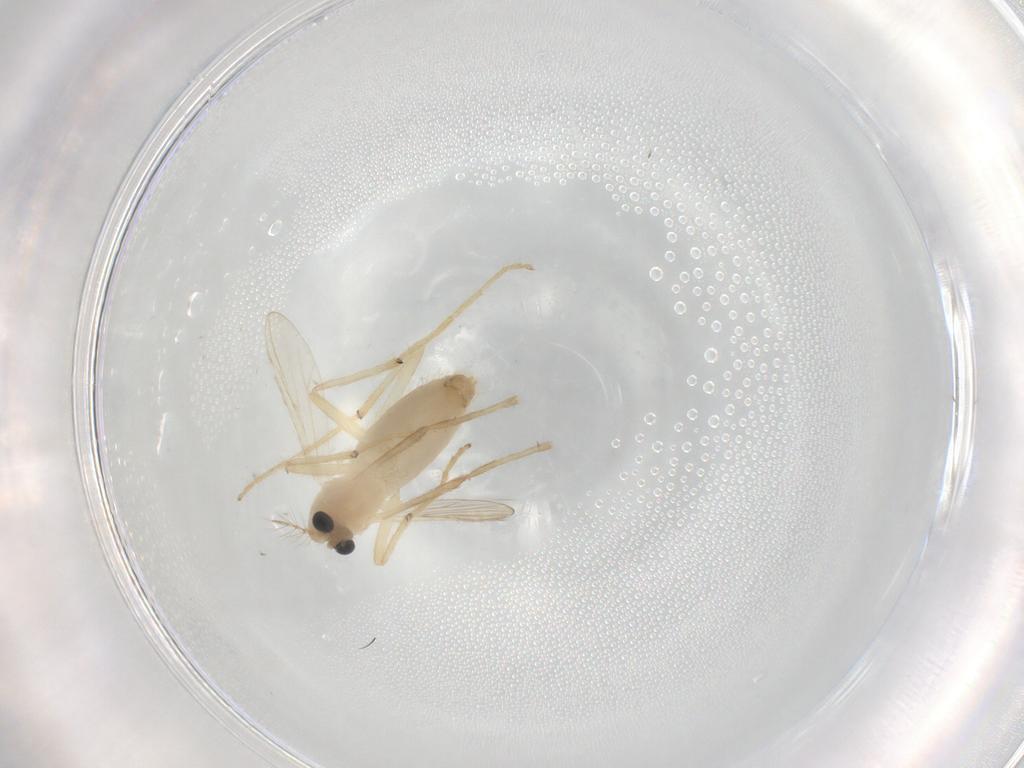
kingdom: Animalia
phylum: Arthropoda
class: Insecta
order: Diptera
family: Chironomidae
